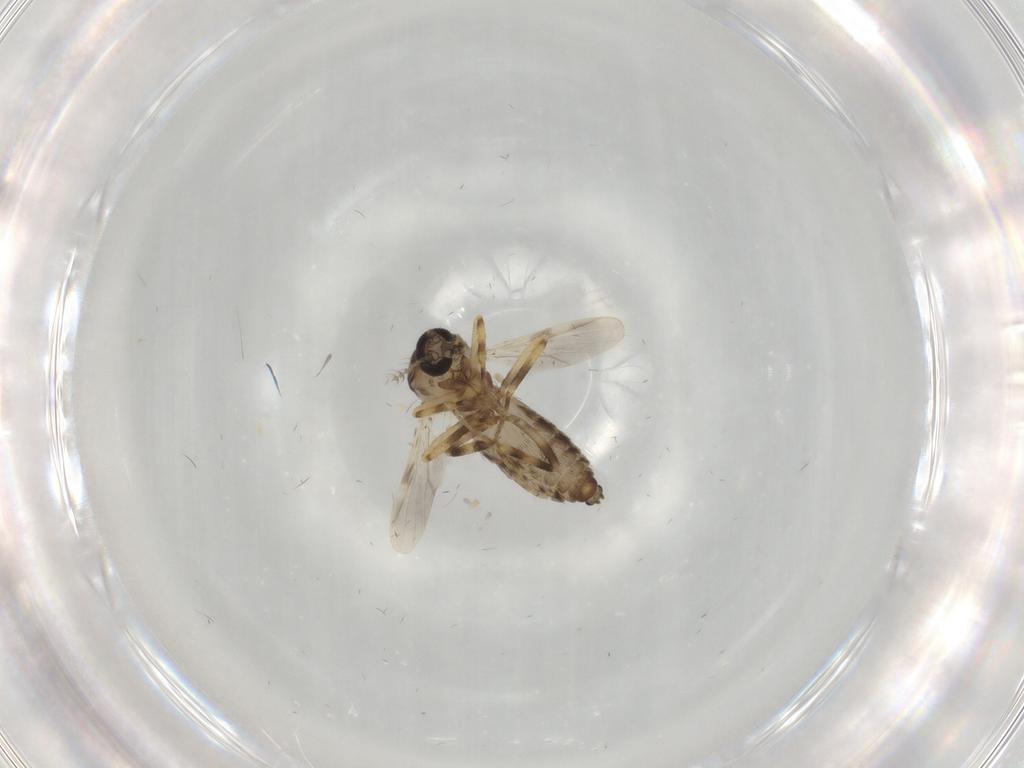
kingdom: Animalia
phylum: Arthropoda
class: Insecta
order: Diptera
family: Ceratopogonidae
